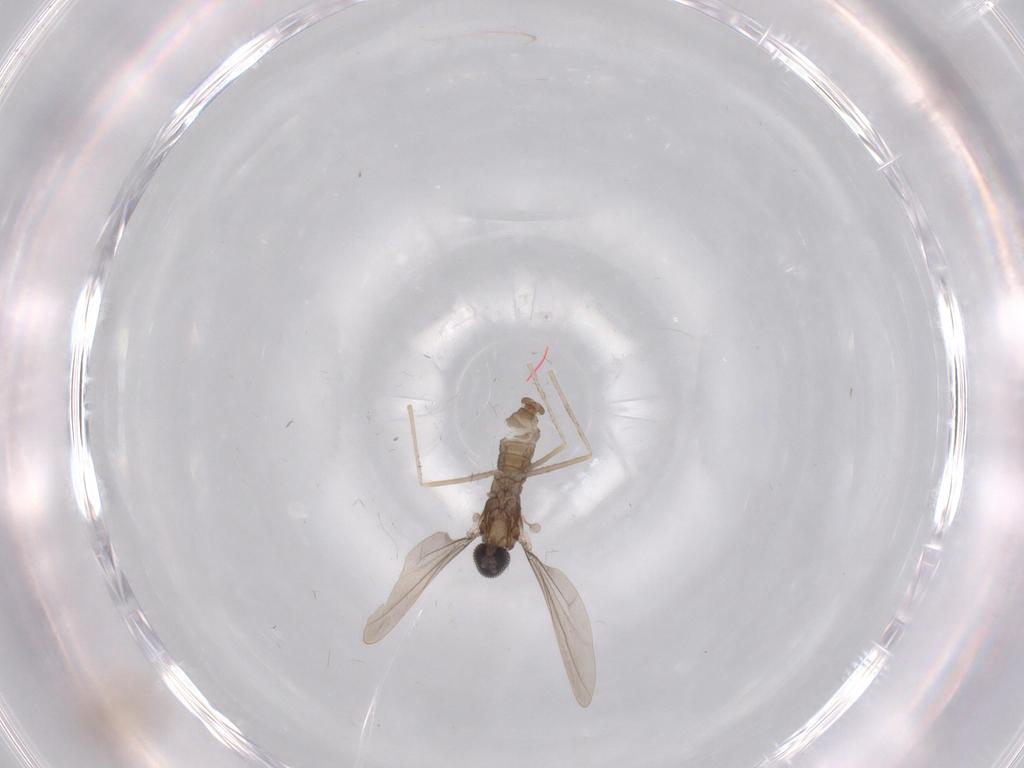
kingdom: Animalia
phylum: Arthropoda
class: Insecta
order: Diptera
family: Cecidomyiidae
